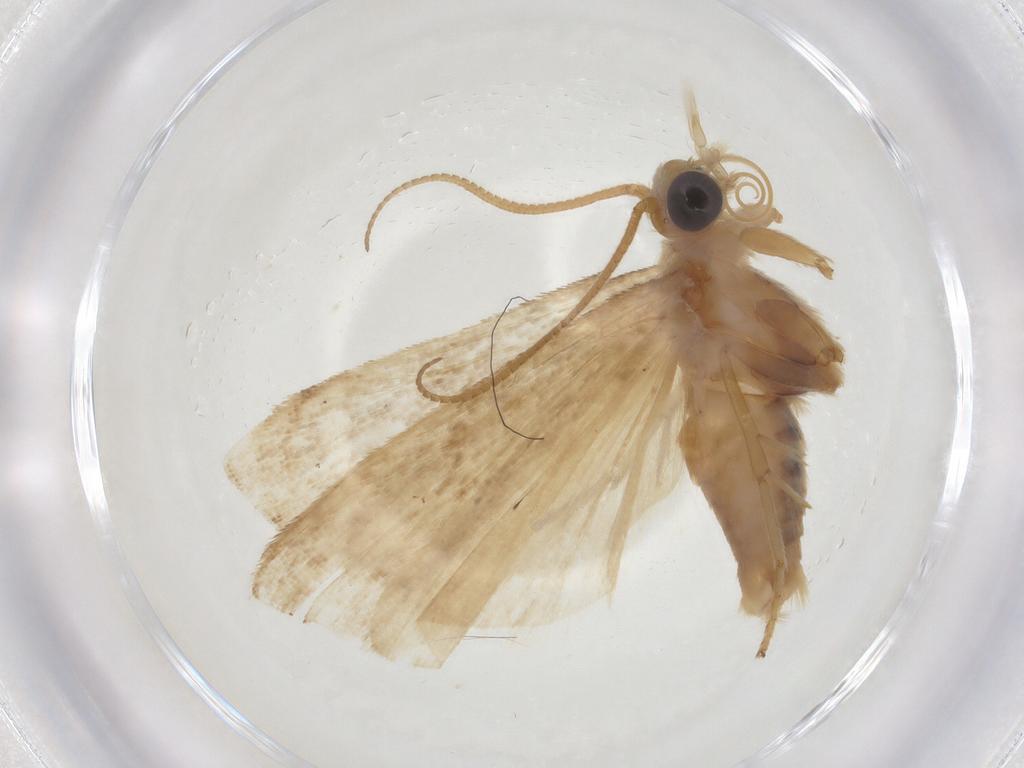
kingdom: Animalia
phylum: Arthropoda
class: Insecta
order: Lepidoptera
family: Pyralidae
